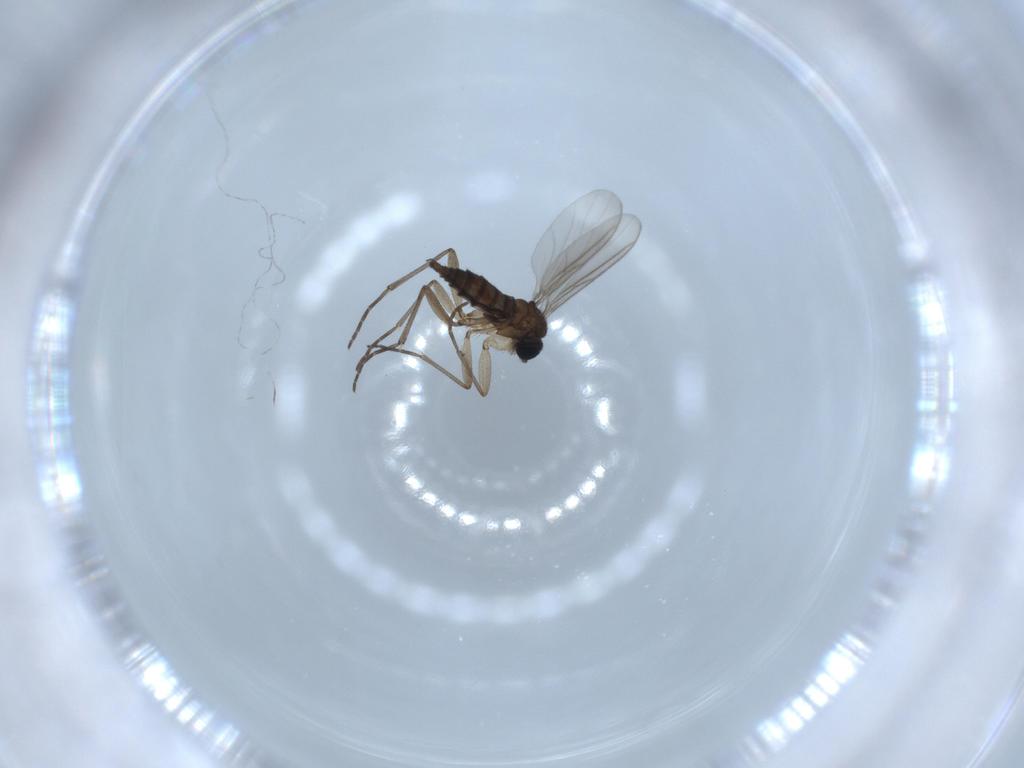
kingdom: Animalia
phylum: Arthropoda
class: Insecta
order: Diptera
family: Sciaridae
